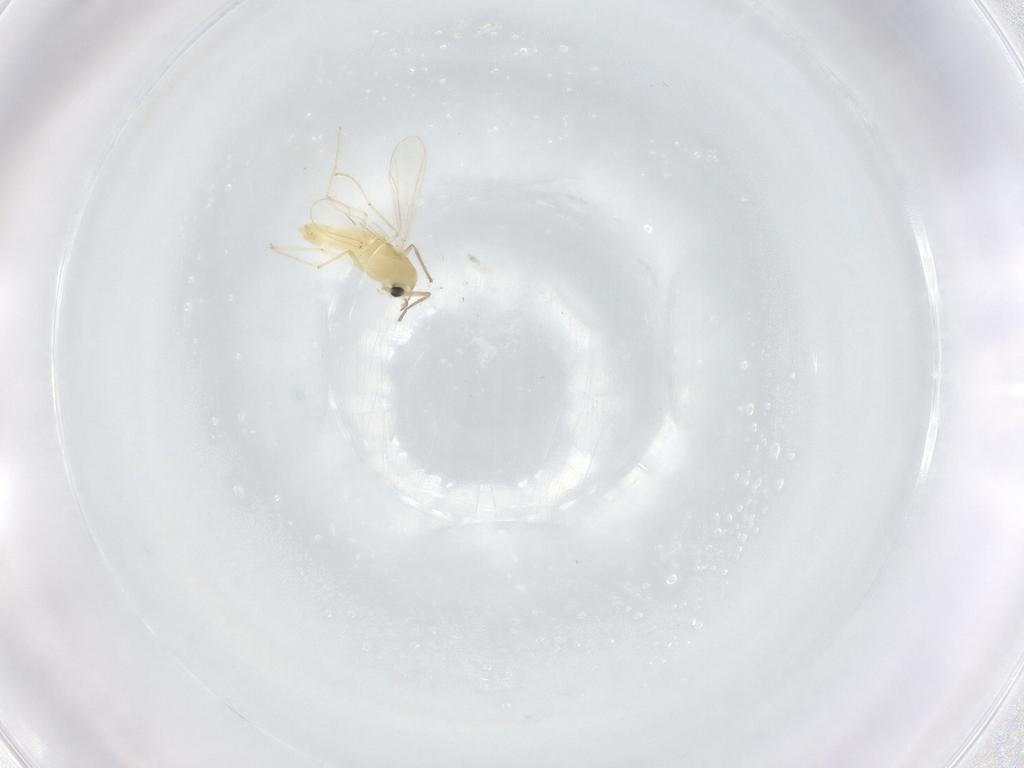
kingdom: Animalia
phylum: Arthropoda
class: Insecta
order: Diptera
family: Chironomidae
